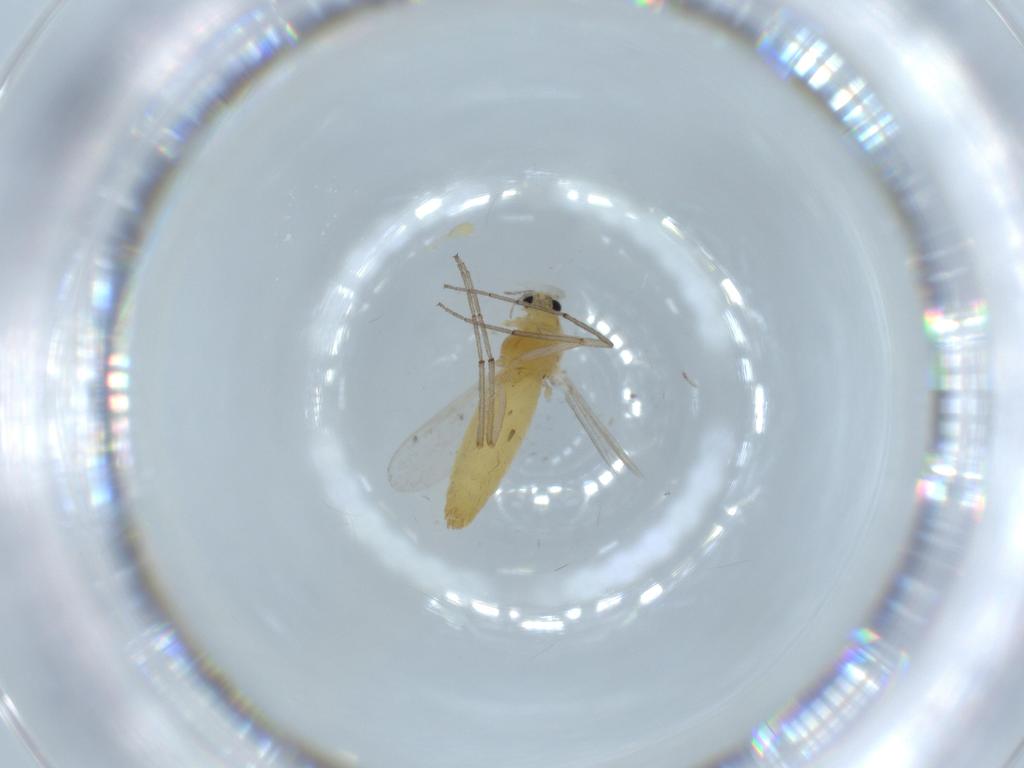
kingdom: Animalia
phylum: Arthropoda
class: Insecta
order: Diptera
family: Chironomidae
